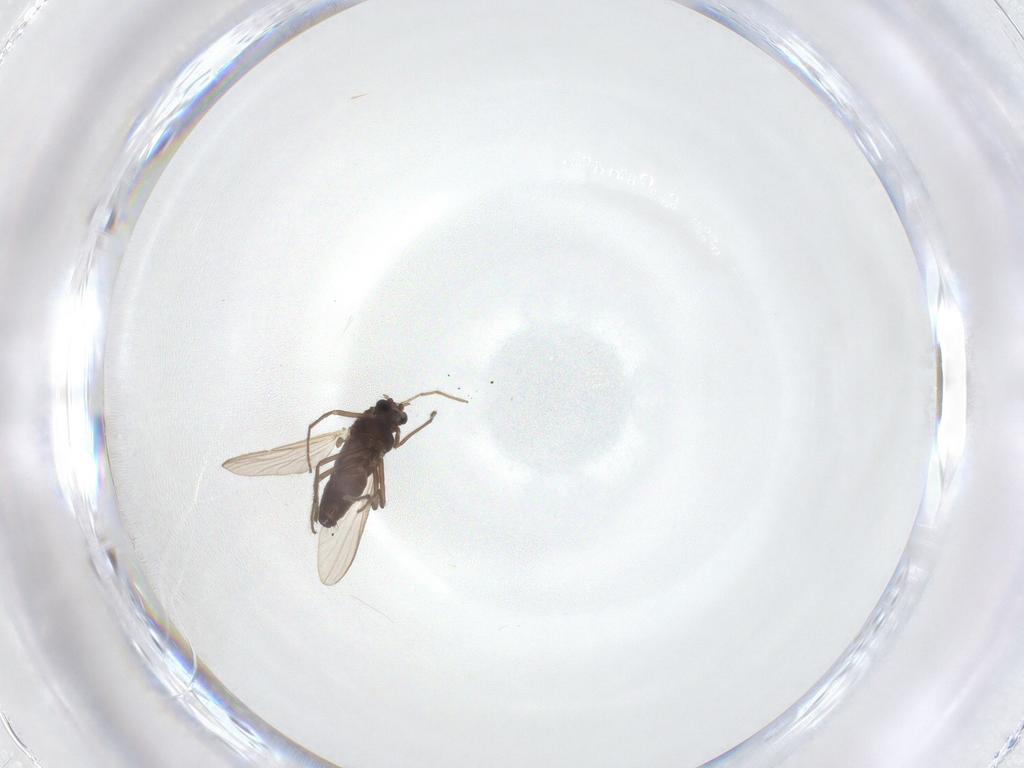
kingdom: Animalia
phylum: Arthropoda
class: Insecta
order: Diptera
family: Chironomidae
